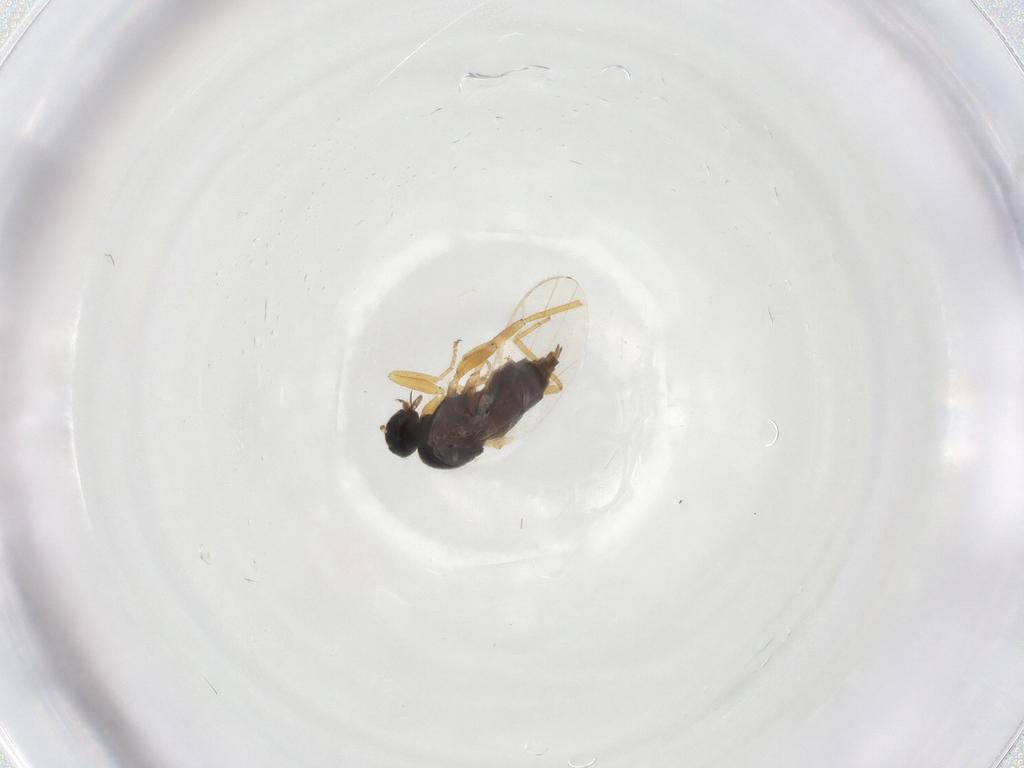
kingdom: Animalia
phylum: Arthropoda
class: Insecta
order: Diptera
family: Hybotidae
